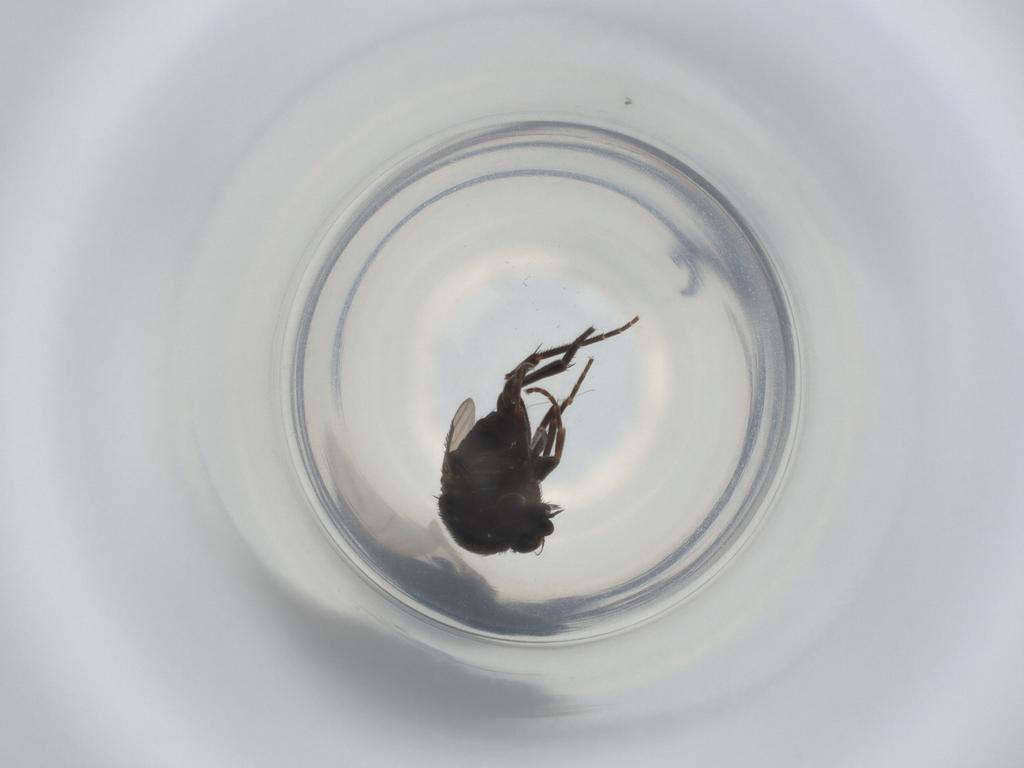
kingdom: Animalia
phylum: Arthropoda
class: Insecta
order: Diptera
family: Phoridae
